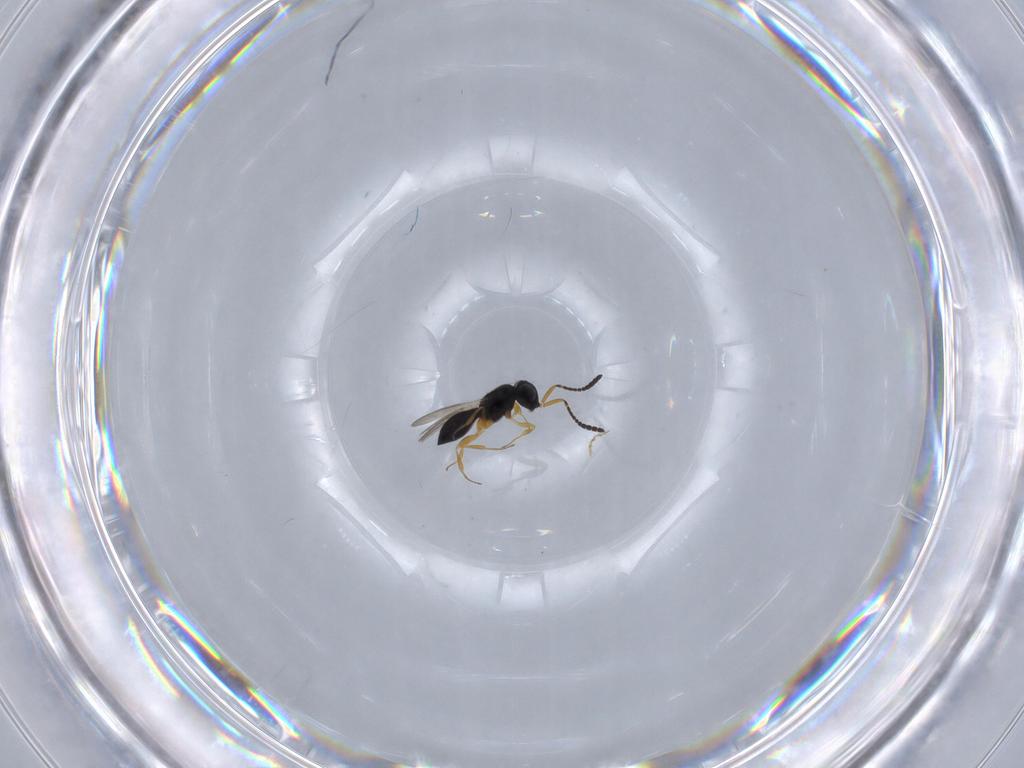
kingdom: Animalia
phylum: Arthropoda
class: Insecta
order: Hymenoptera
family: Scelionidae
